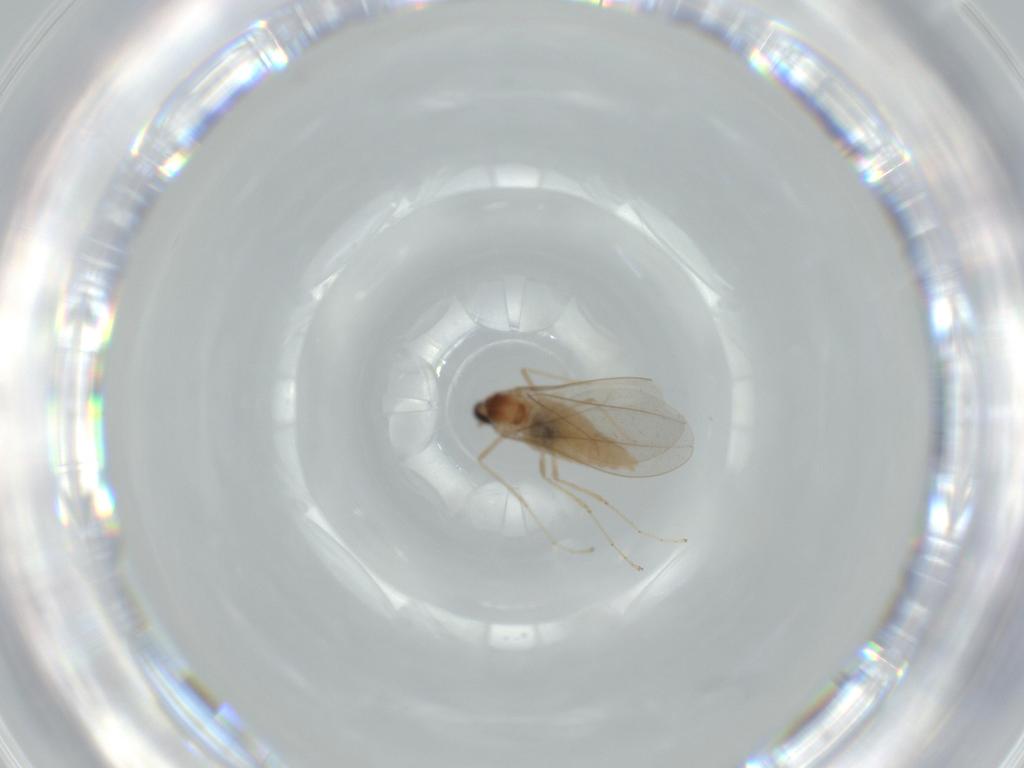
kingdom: Animalia
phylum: Arthropoda
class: Insecta
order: Diptera
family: Cecidomyiidae
